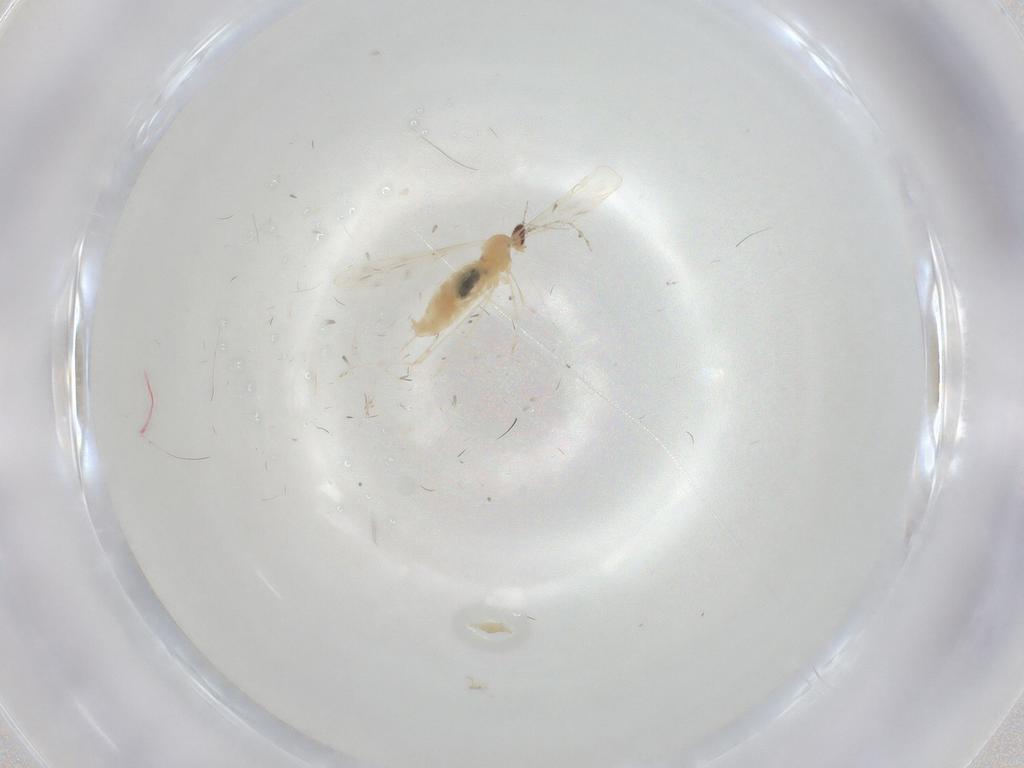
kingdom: Animalia
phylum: Arthropoda
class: Insecta
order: Diptera
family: Cecidomyiidae
